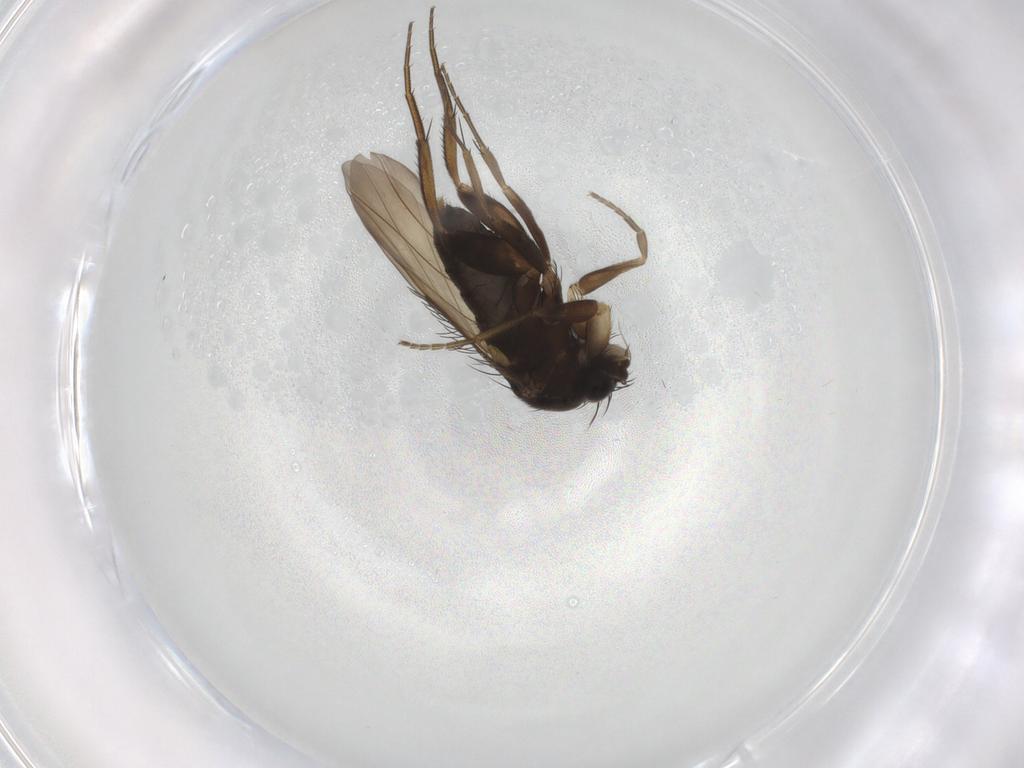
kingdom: Animalia
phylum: Arthropoda
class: Insecta
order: Diptera
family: Phoridae
